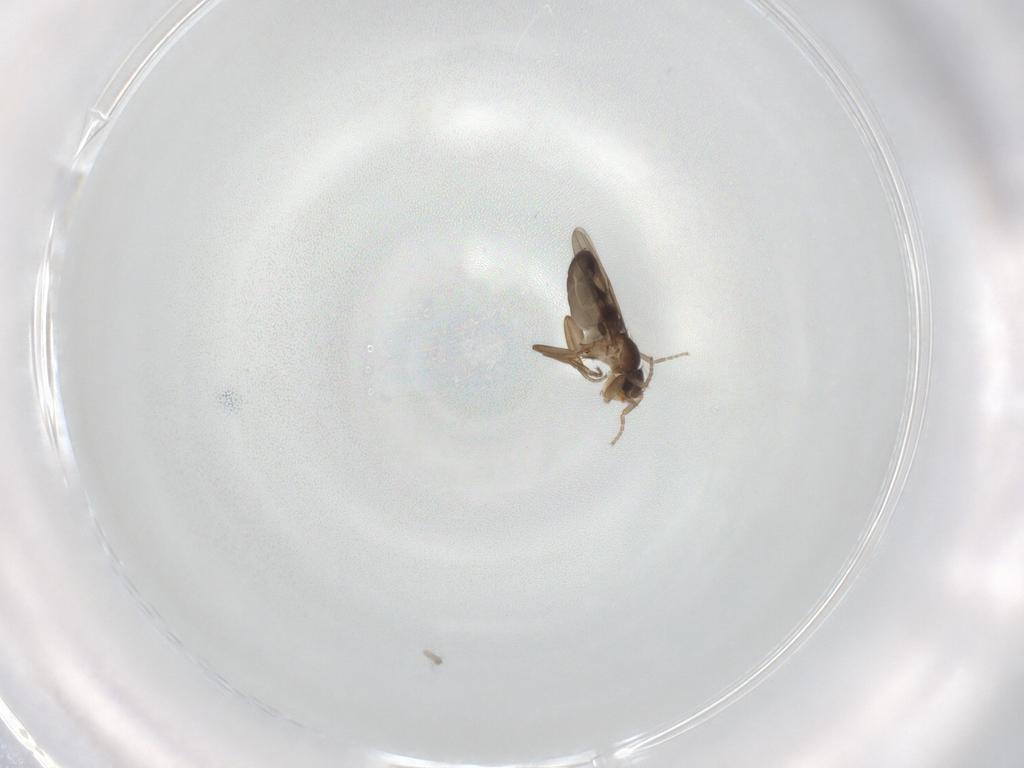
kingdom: Animalia
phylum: Arthropoda
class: Insecta
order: Diptera
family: Phoridae
